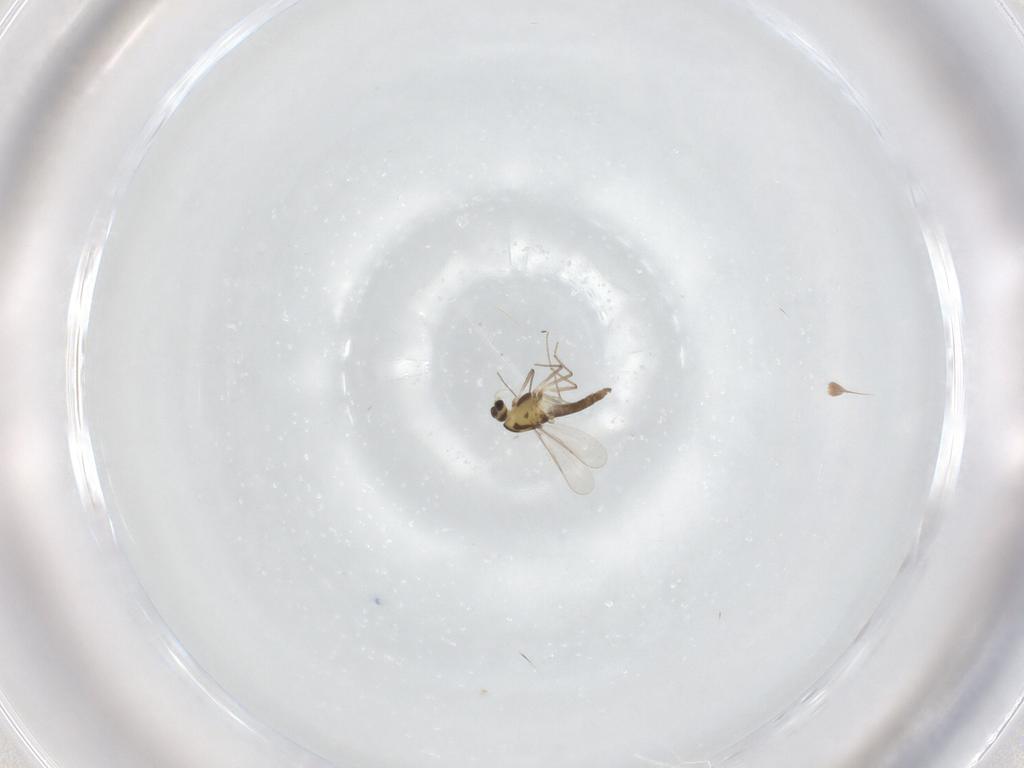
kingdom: Animalia
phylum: Arthropoda
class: Insecta
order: Diptera
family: Chironomidae
